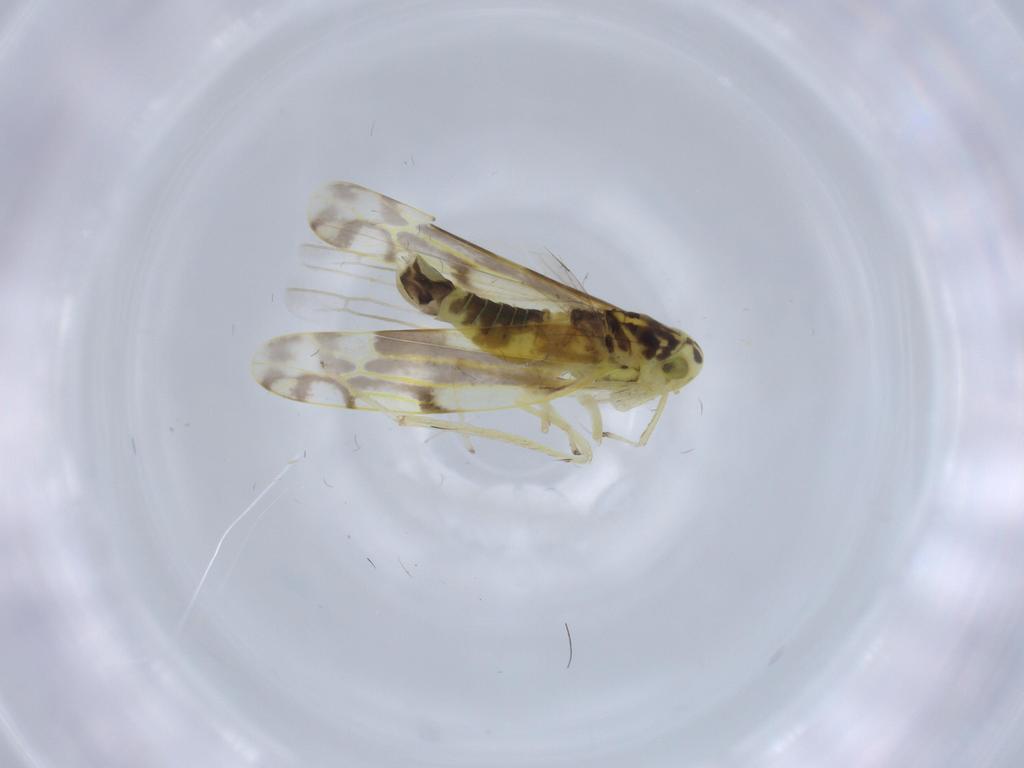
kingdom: Animalia
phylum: Arthropoda
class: Insecta
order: Hemiptera
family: Cicadellidae
